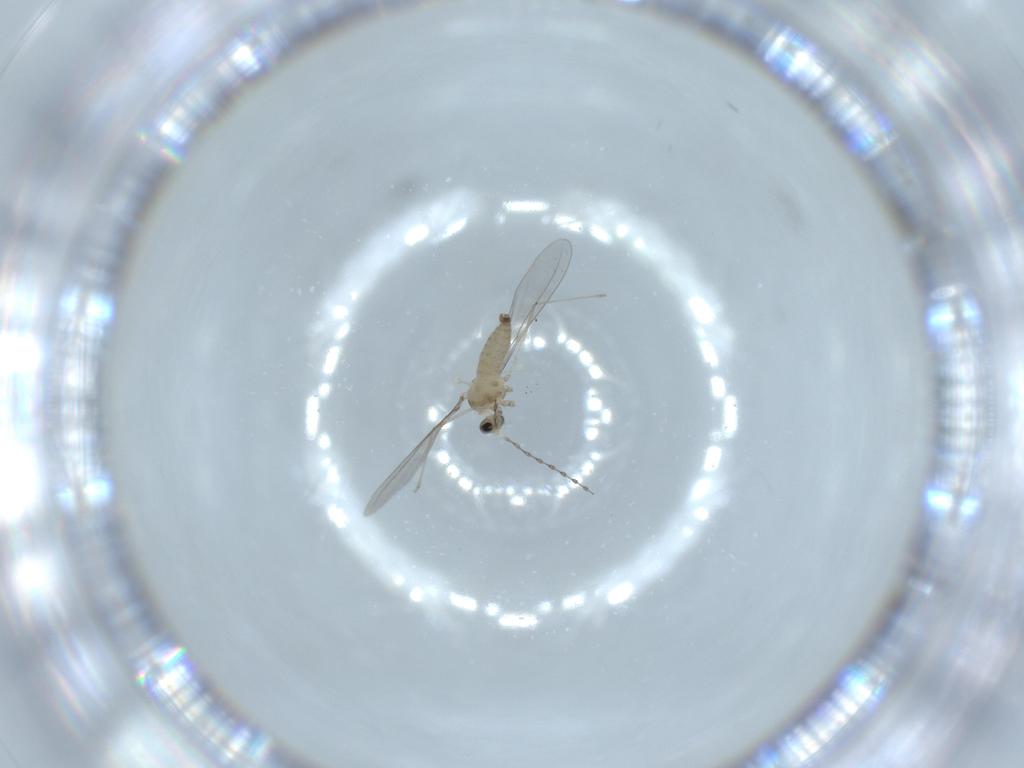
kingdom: Animalia
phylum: Arthropoda
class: Insecta
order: Diptera
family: Cecidomyiidae
